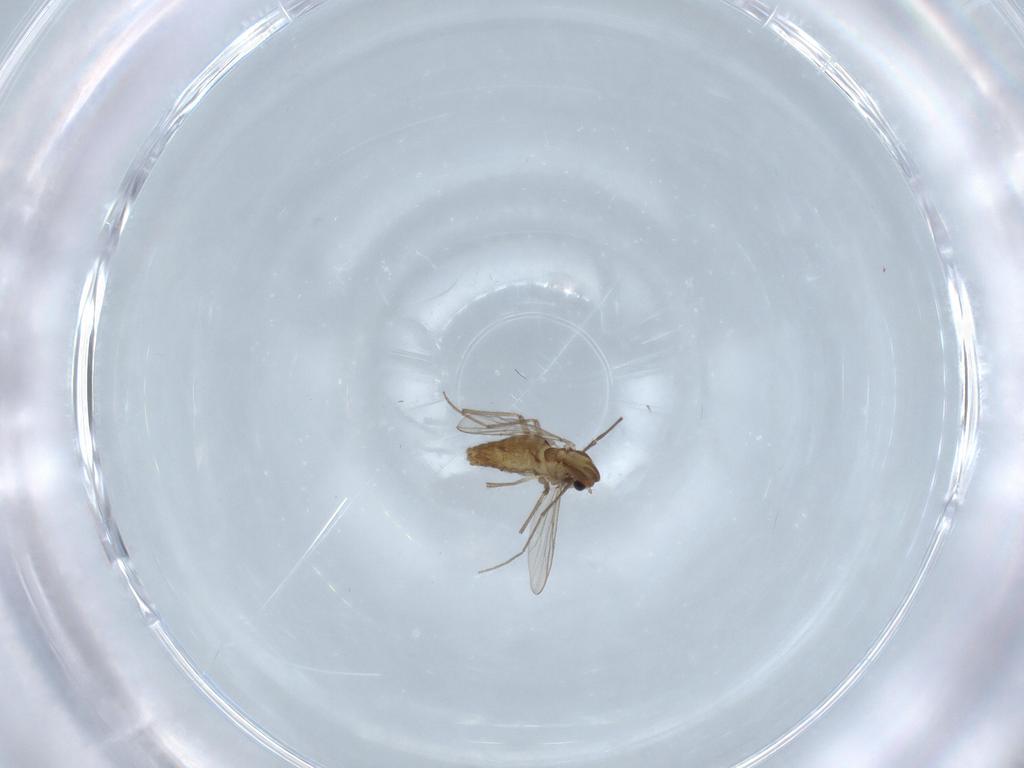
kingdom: Animalia
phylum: Arthropoda
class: Insecta
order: Diptera
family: Chironomidae
